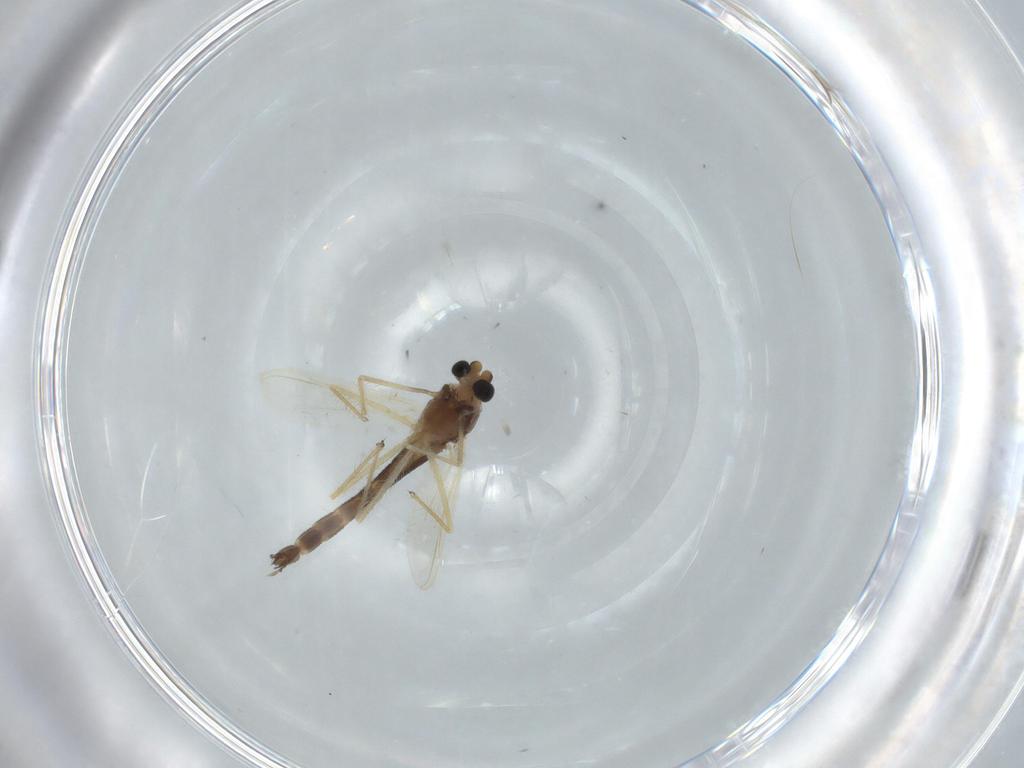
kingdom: Animalia
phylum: Arthropoda
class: Insecta
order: Diptera
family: Chironomidae
